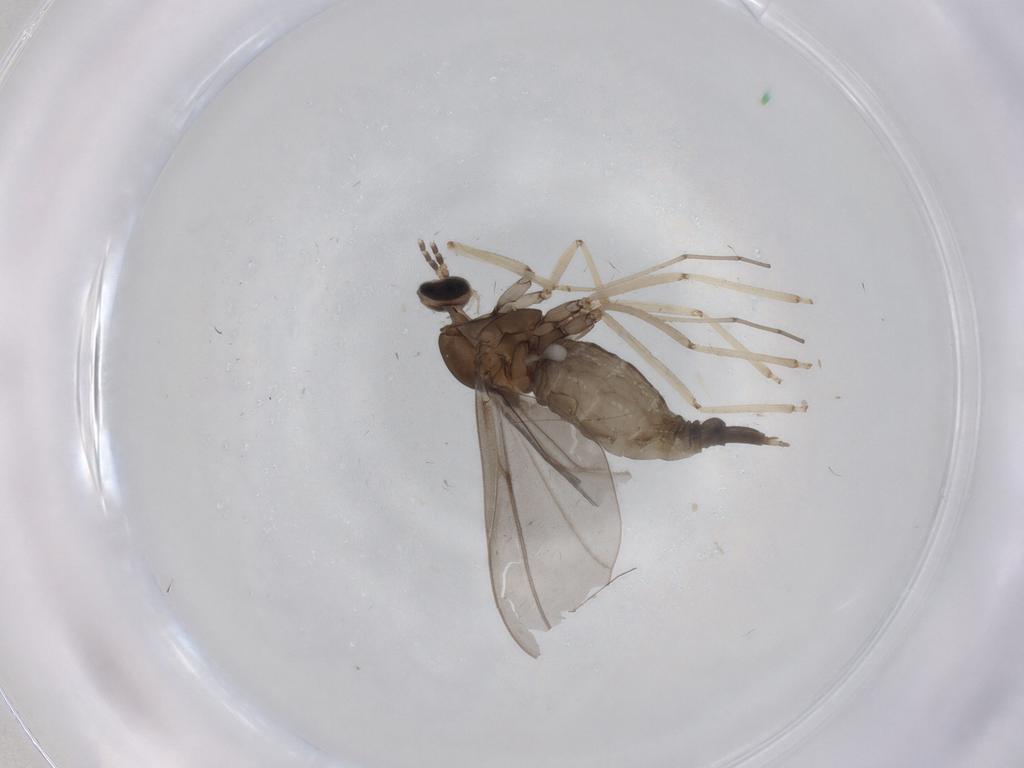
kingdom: Animalia
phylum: Arthropoda
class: Insecta
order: Diptera
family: Cecidomyiidae
